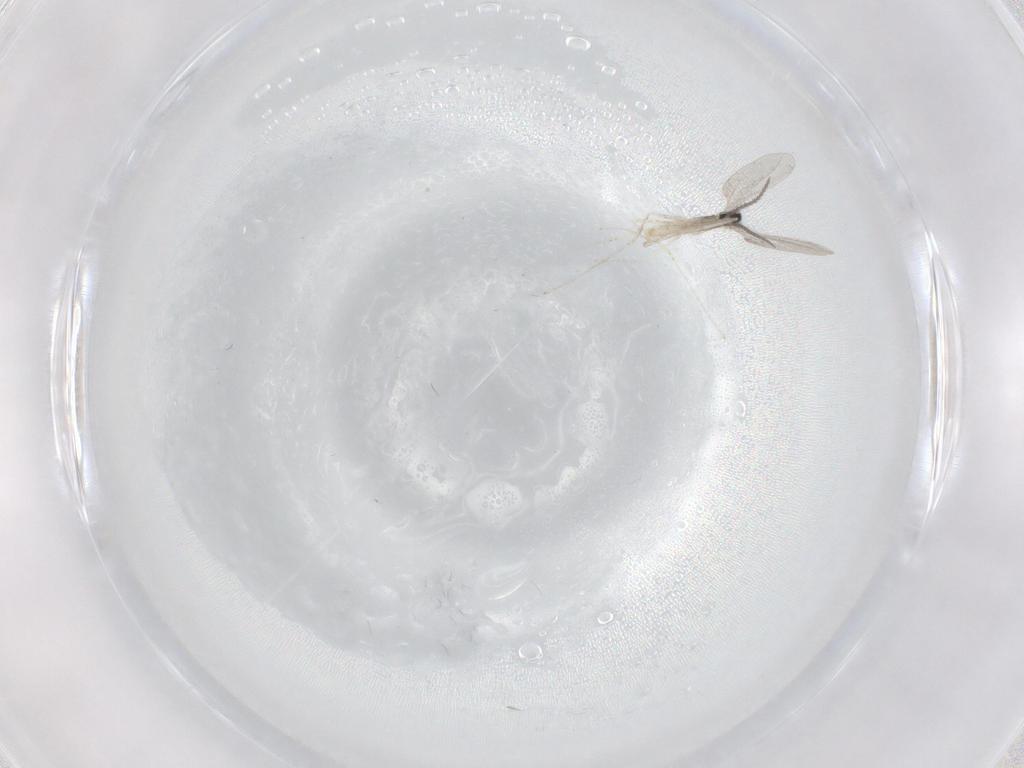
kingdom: Animalia
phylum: Arthropoda
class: Insecta
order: Diptera
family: Cecidomyiidae
